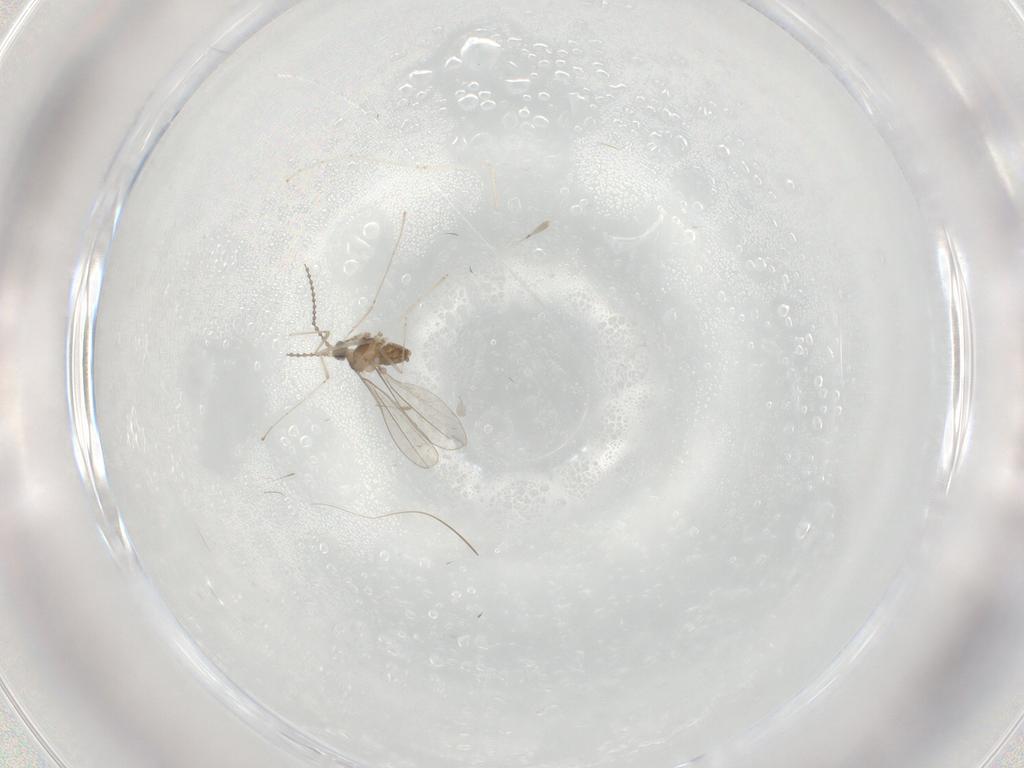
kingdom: Animalia
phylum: Arthropoda
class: Insecta
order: Diptera
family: Cecidomyiidae
